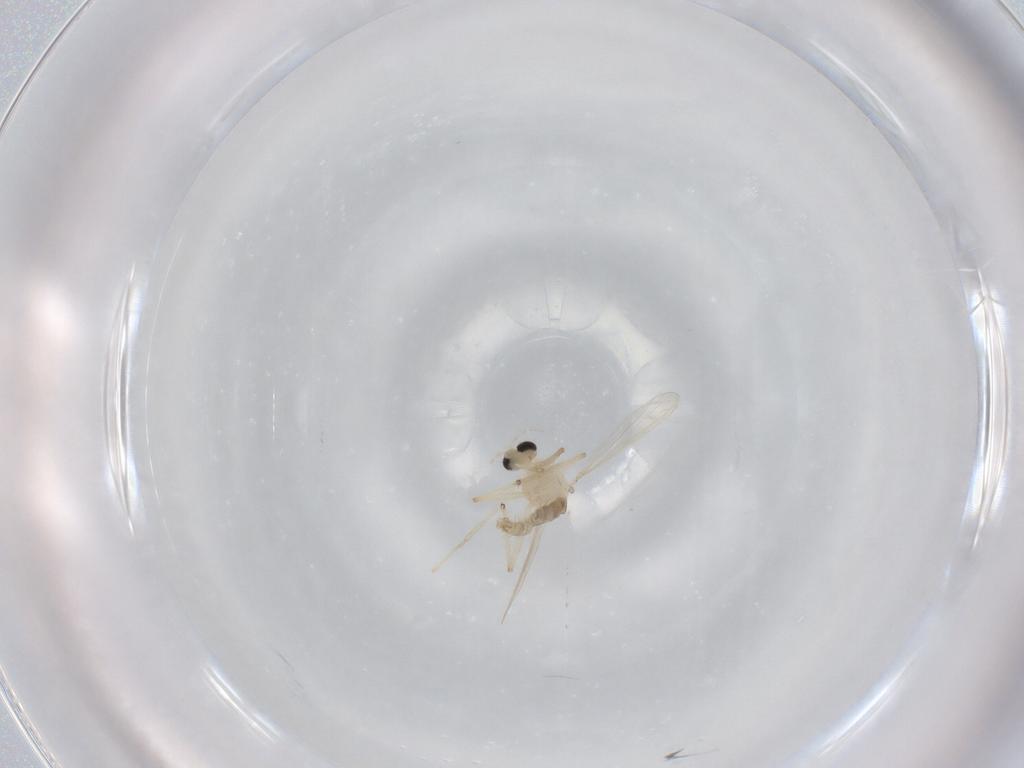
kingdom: Animalia
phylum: Arthropoda
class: Insecta
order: Diptera
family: Chironomidae
